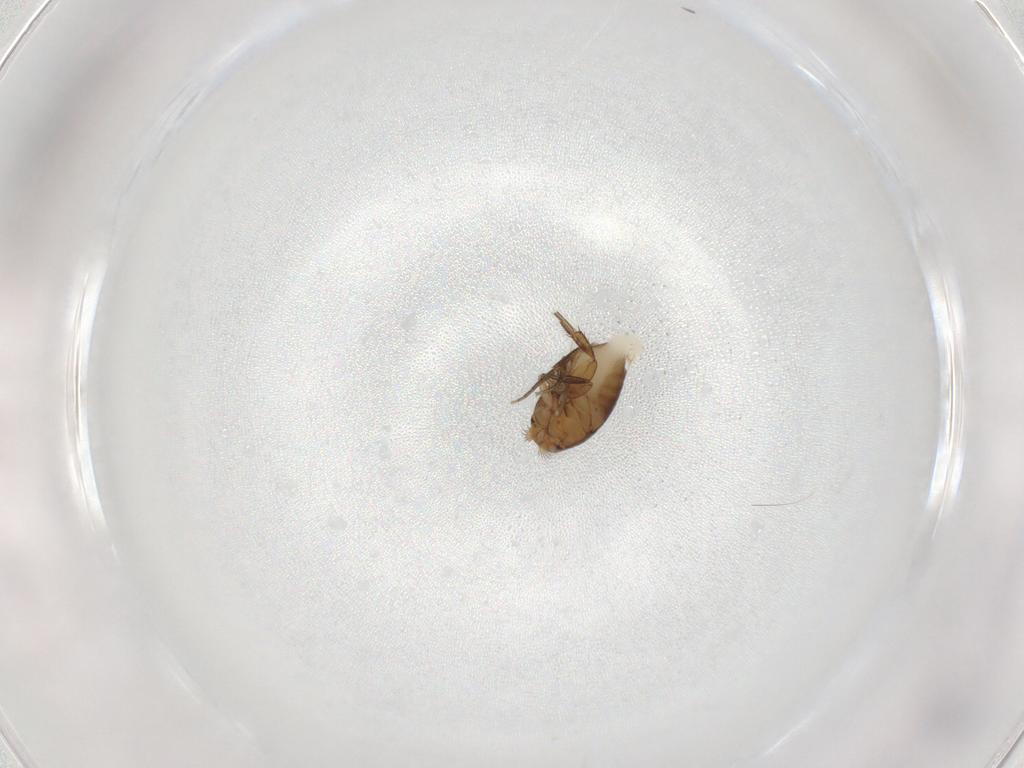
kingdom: Animalia
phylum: Arthropoda
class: Insecta
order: Diptera
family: Phoridae
